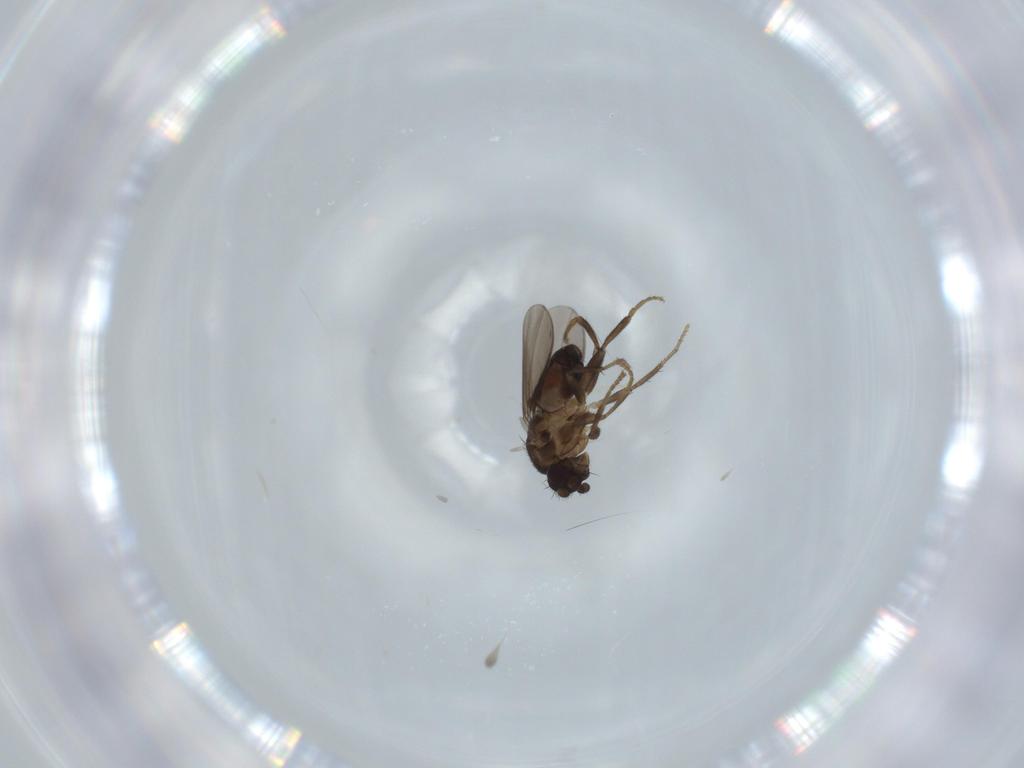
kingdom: Animalia
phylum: Arthropoda
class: Insecta
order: Diptera
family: Sphaeroceridae
